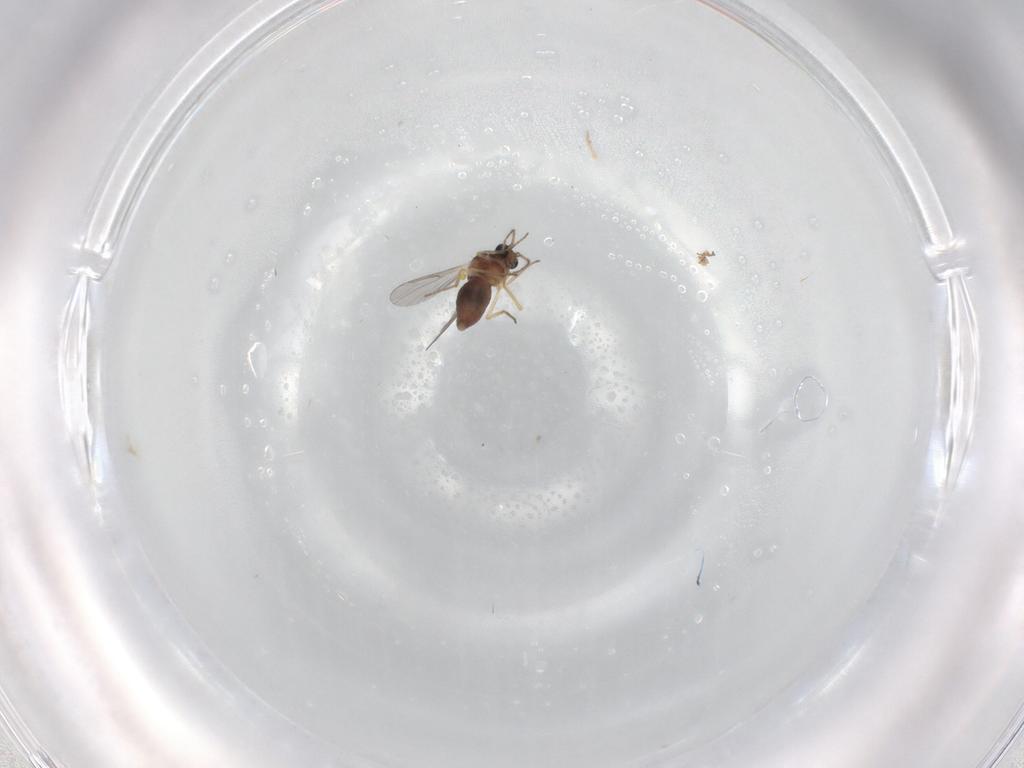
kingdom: Animalia
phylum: Arthropoda
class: Insecta
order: Diptera
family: Ceratopogonidae
